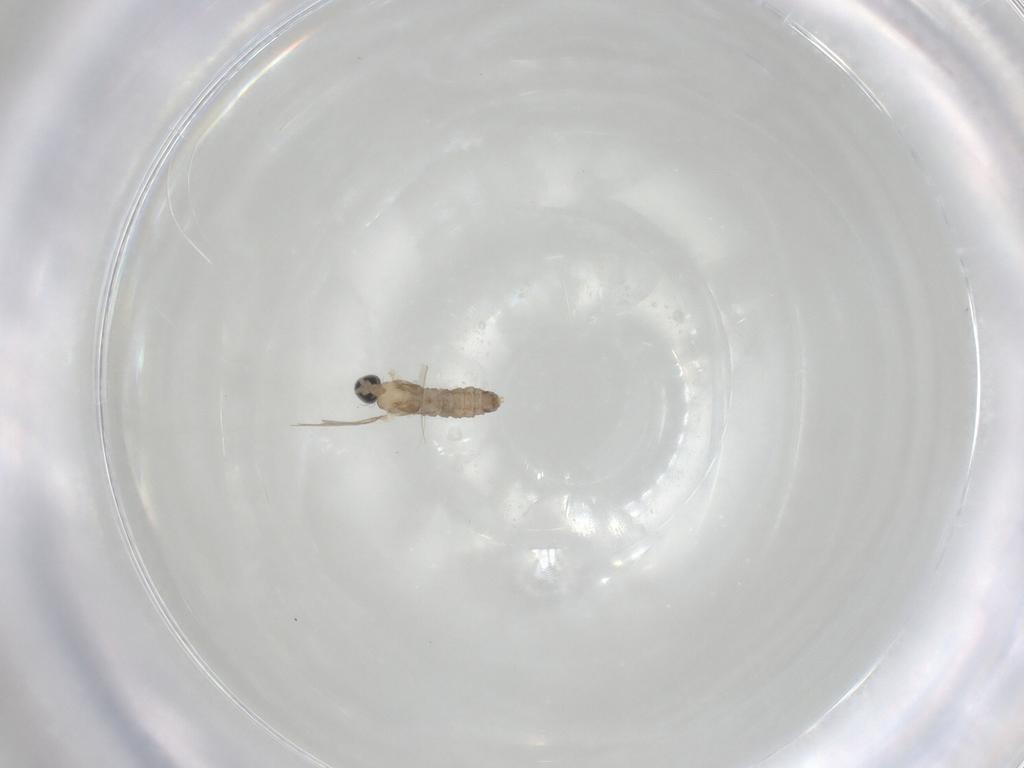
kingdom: Animalia
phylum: Arthropoda
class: Insecta
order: Diptera
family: Cecidomyiidae
